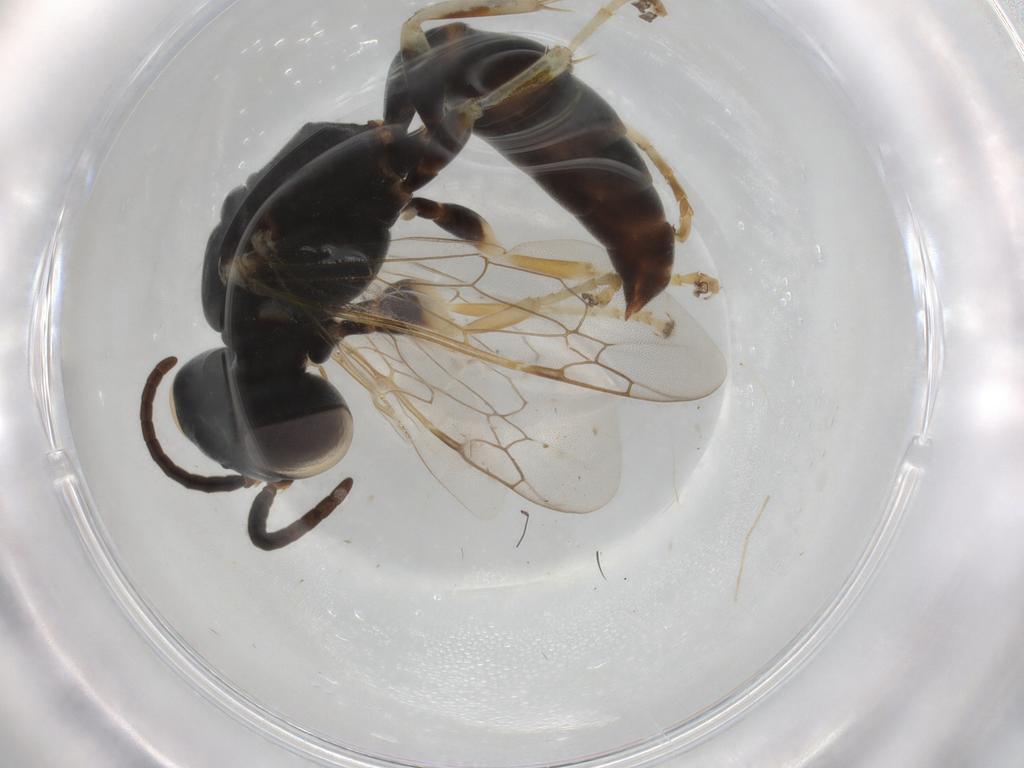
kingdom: Animalia
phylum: Arthropoda
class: Insecta
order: Hymenoptera
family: Crabronidae
